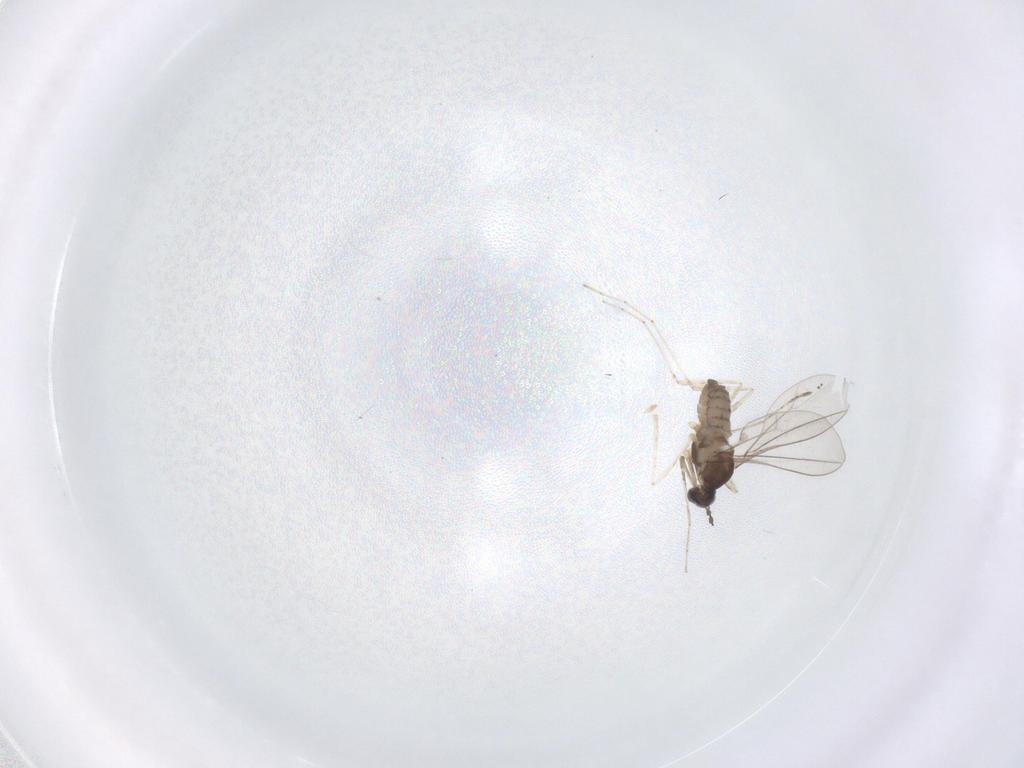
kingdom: Animalia
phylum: Arthropoda
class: Insecta
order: Diptera
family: Cecidomyiidae
